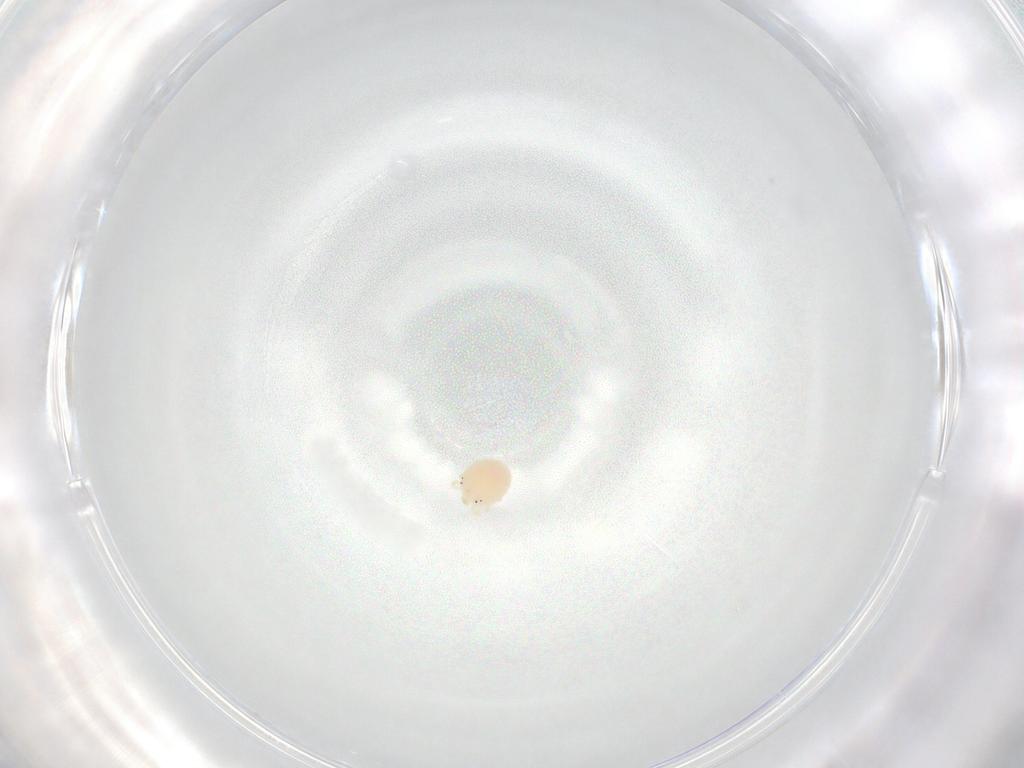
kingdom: Animalia
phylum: Arthropoda
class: Arachnida
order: Trombidiformes
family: Hydryphantidae
